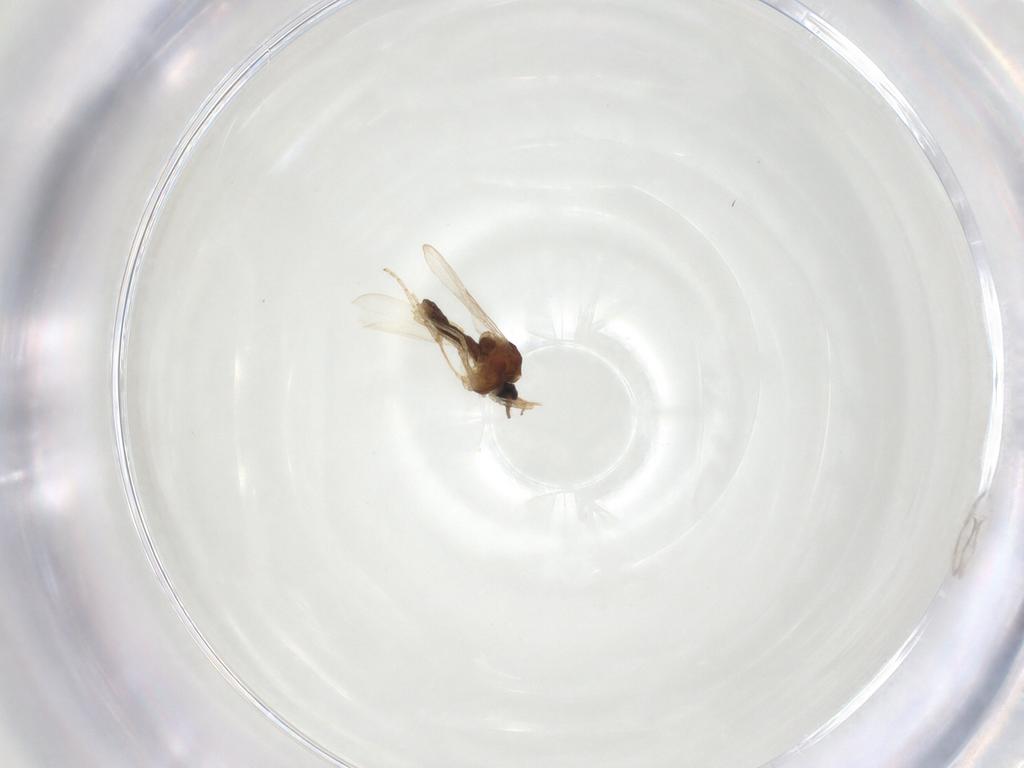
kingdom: Animalia
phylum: Arthropoda
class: Insecta
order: Diptera
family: Ceratopogonidae
